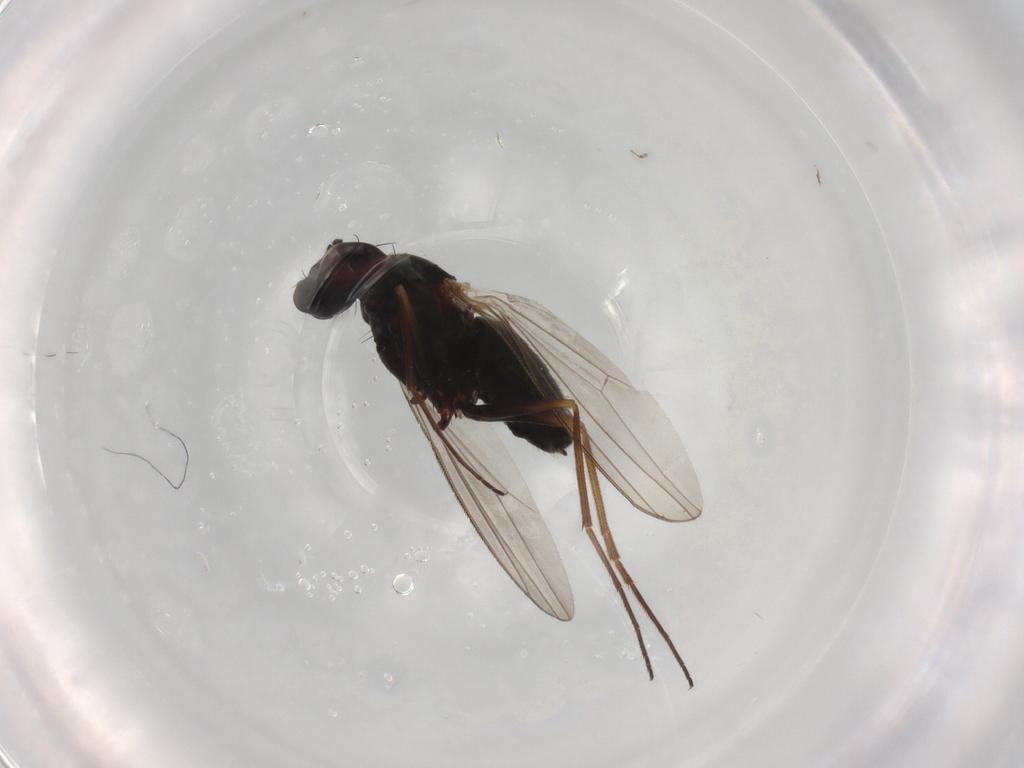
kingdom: Animalia
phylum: Arthropoda
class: Insecta
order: Diptera
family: Dolichopodidae
